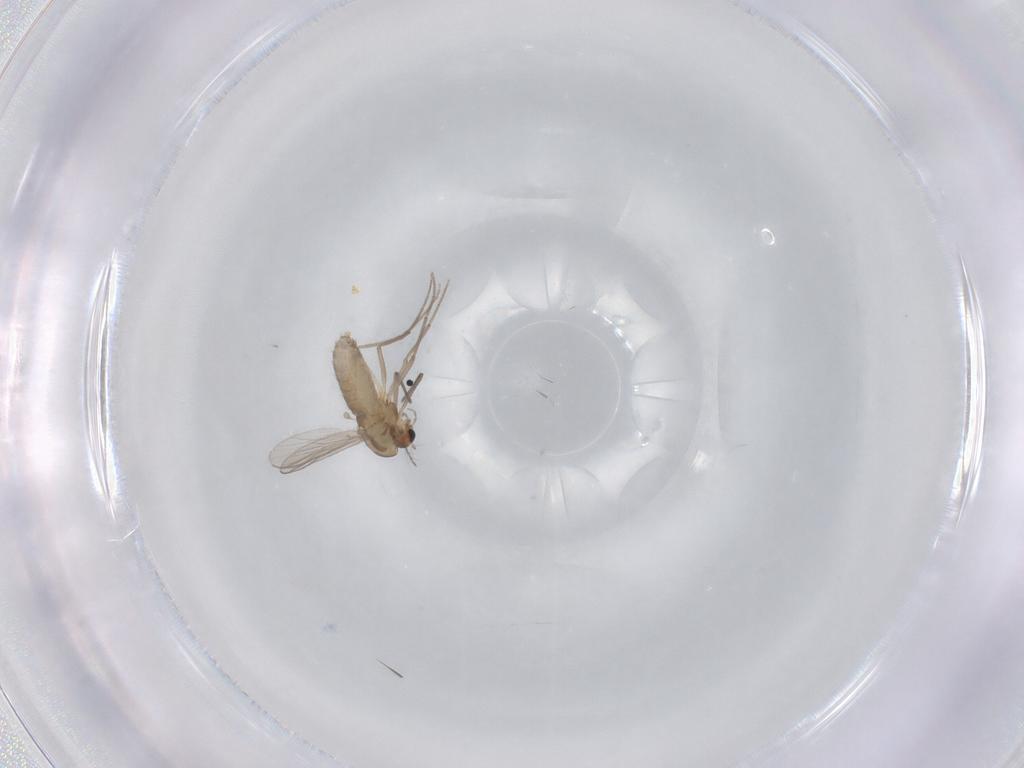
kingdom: Animalia
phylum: Arthropoda
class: Insecta
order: Diptera
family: Chironomidae
